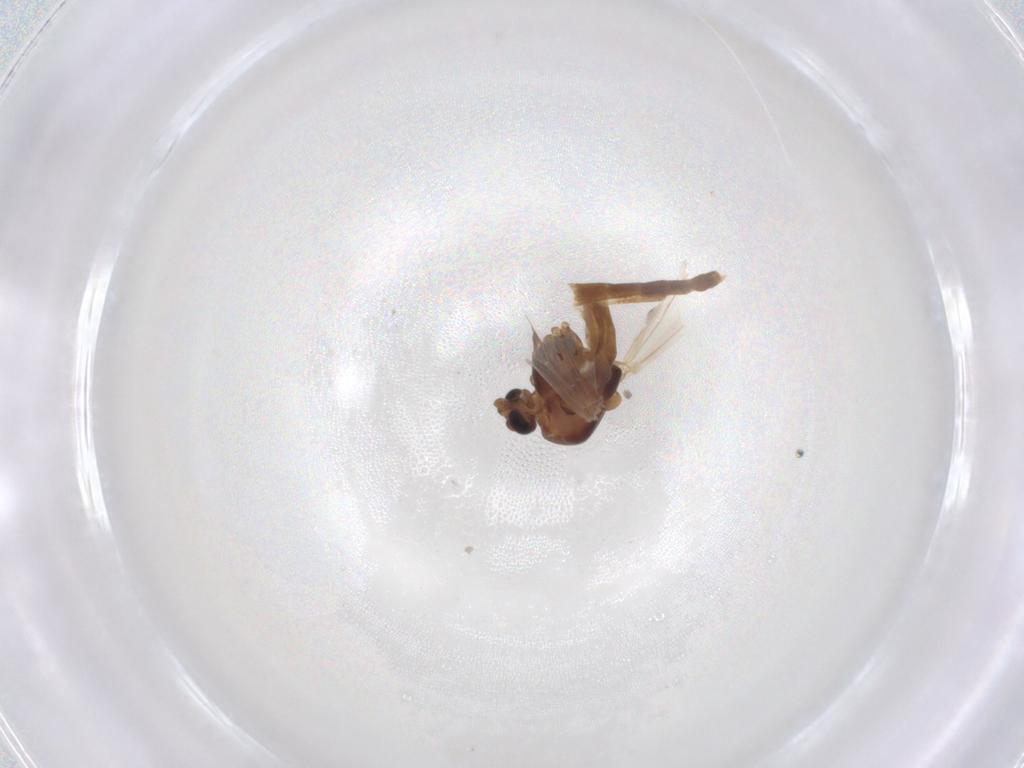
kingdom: Animalia
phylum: Arthropoda
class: Insecta
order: Diptera
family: Chironomidae
